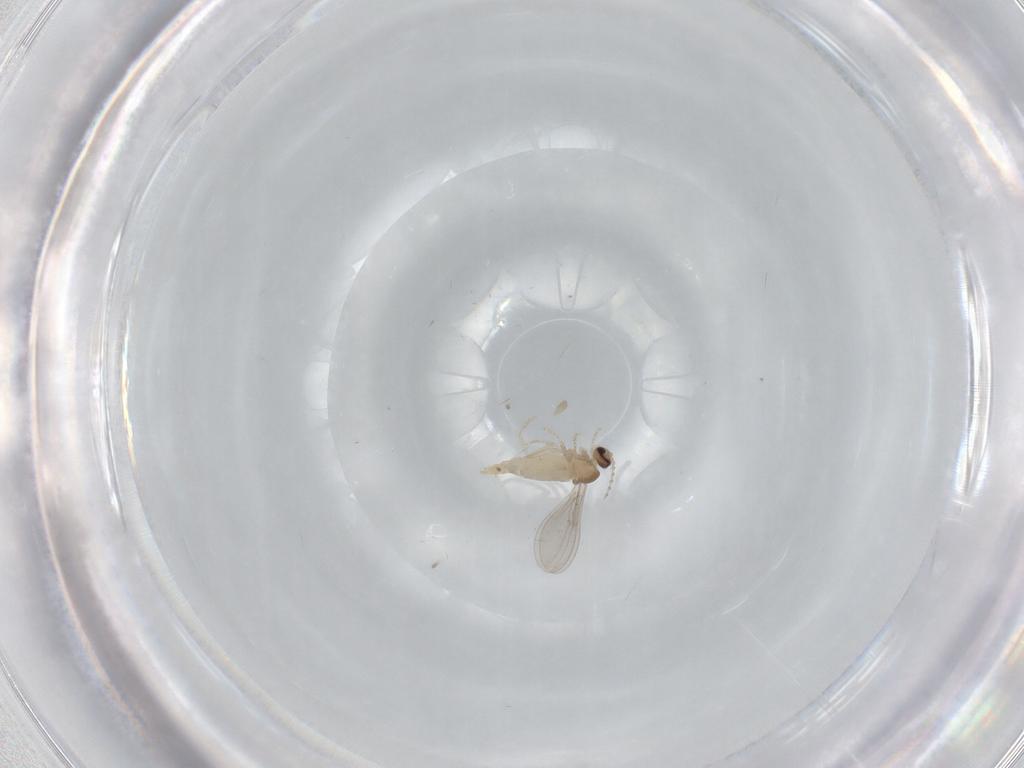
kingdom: Animalia
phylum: Arthropoda
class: Insecta
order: Diptera
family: Cecidomyiidae
